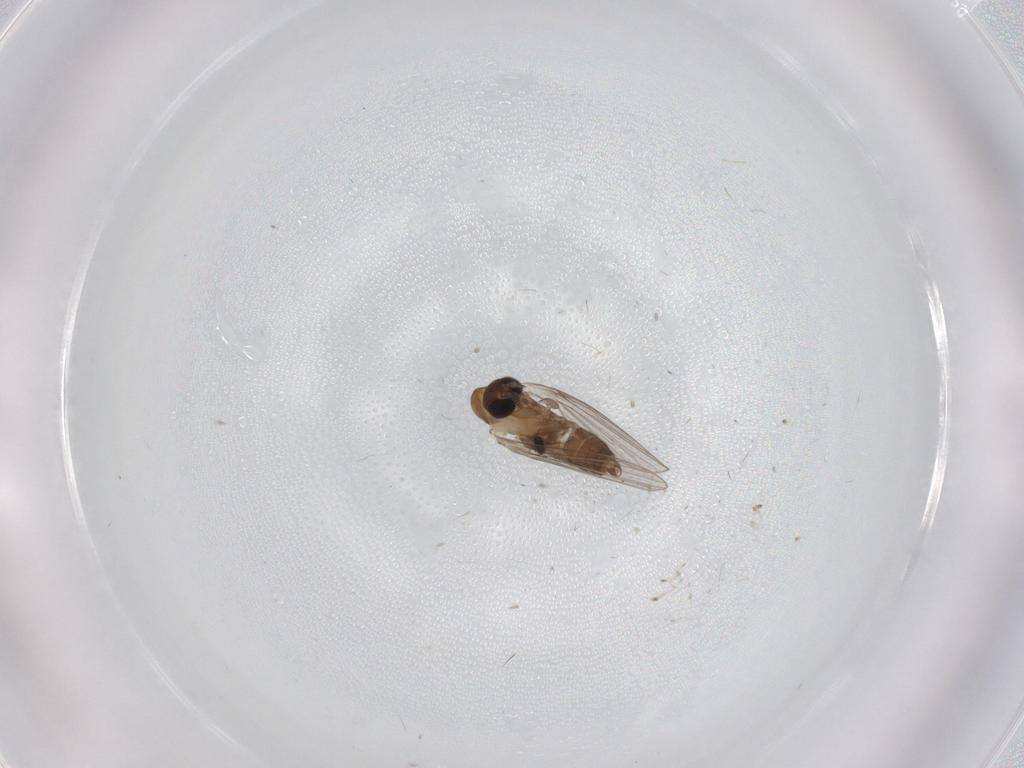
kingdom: Animalia
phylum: Arthropoda
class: Insecta
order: Diptera
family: Psychodidae
